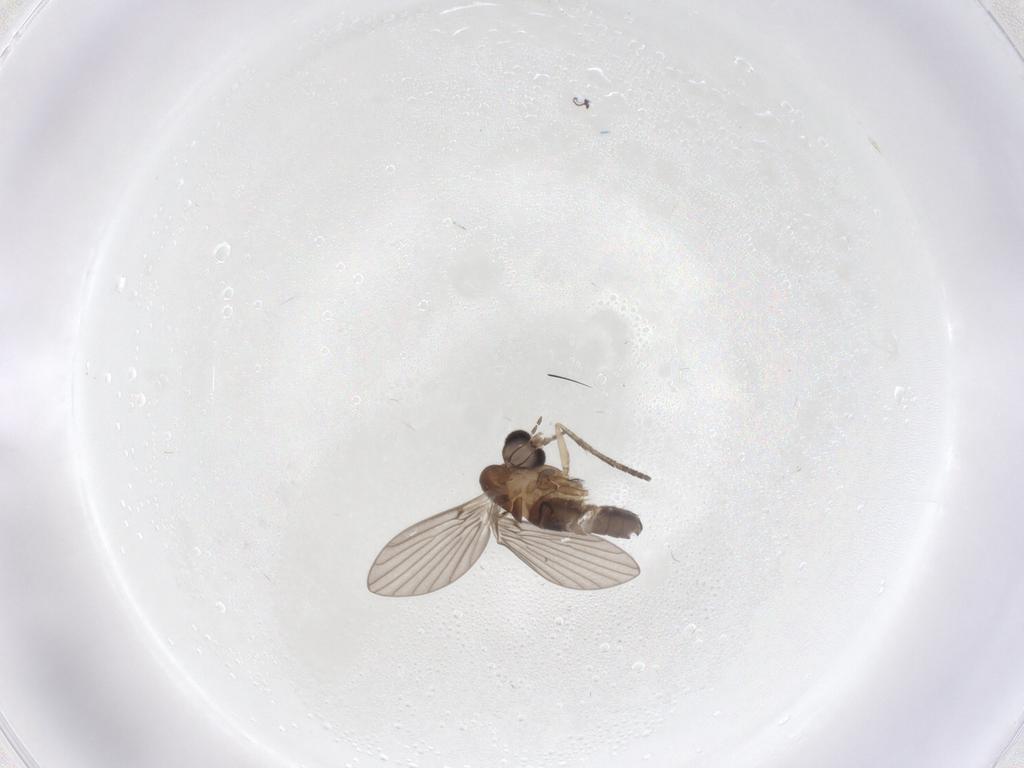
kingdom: Animalia
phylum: Arthropoda
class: Insecta
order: Diptera
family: Psychodidae
